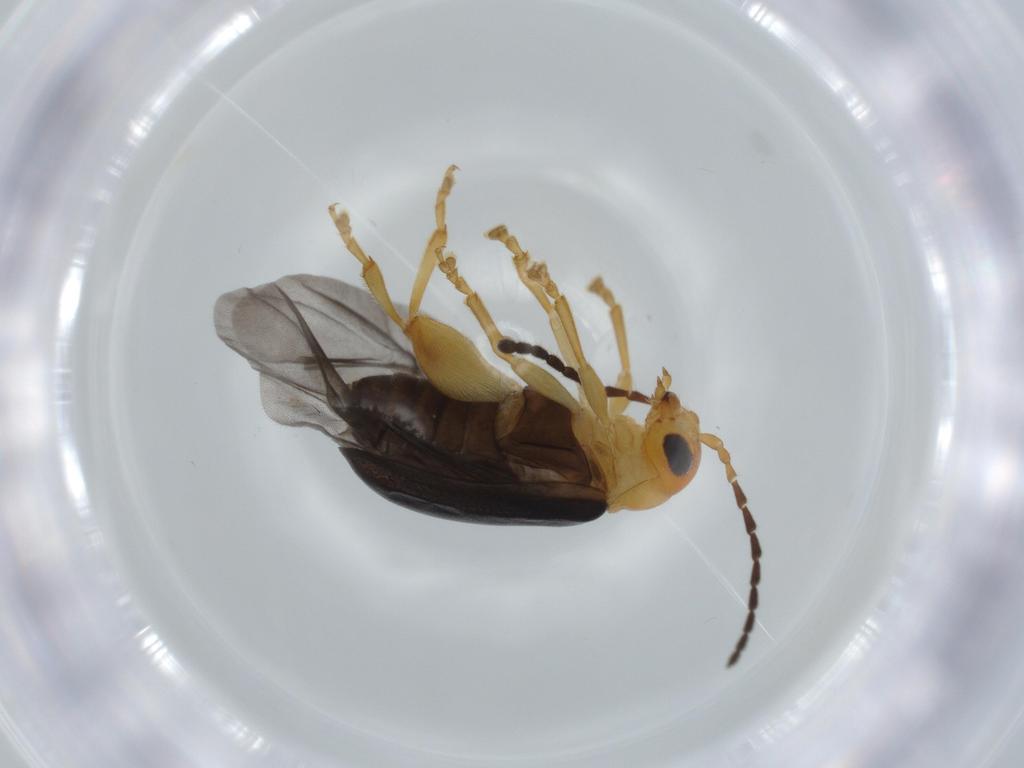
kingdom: Animalia
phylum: Arthropoda
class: Insecta
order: Coleoptera
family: Chrysomelidae
